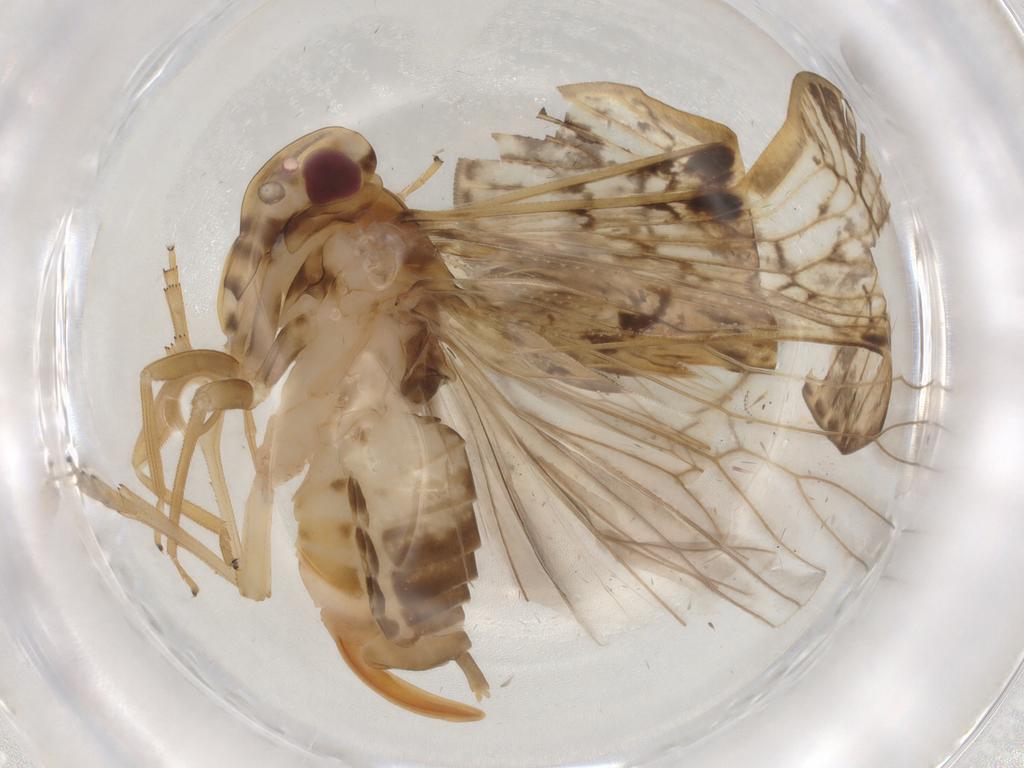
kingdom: Animalia
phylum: Arthropoda
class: Insecta
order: Hemiptera
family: Cixiidae
